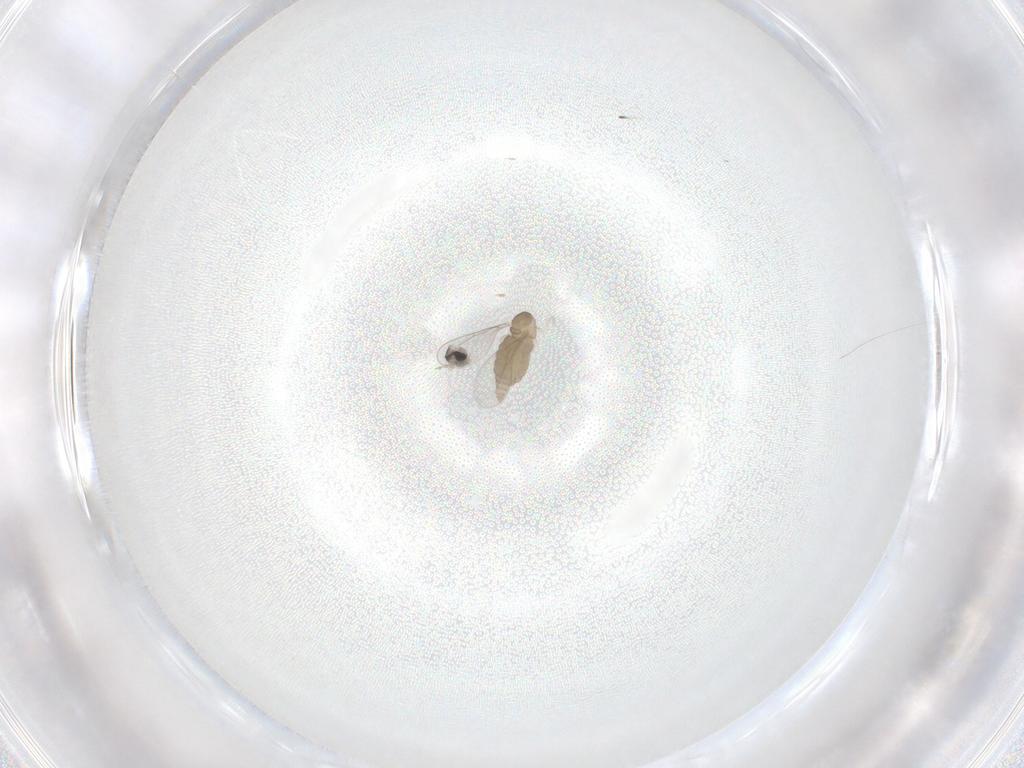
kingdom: Animalia
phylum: Arthropoda
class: Insecta
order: Diptera
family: Cecidomyiidae
